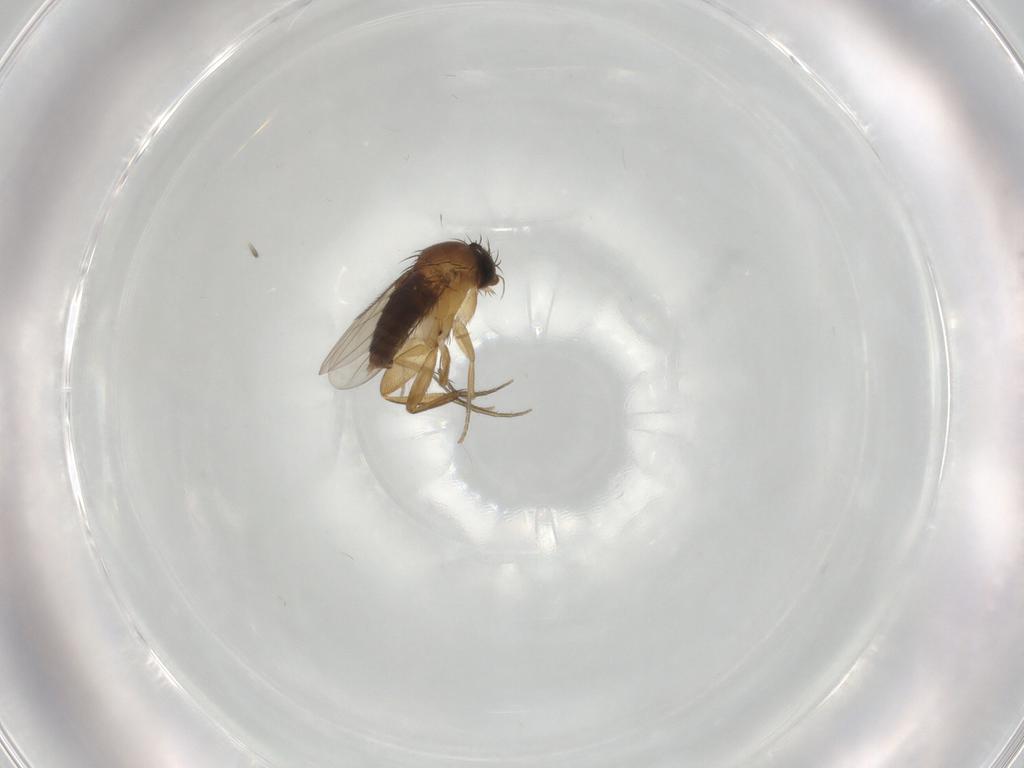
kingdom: Animalia
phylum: Arthropoda
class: Insecta
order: Diptera
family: Phoridae
